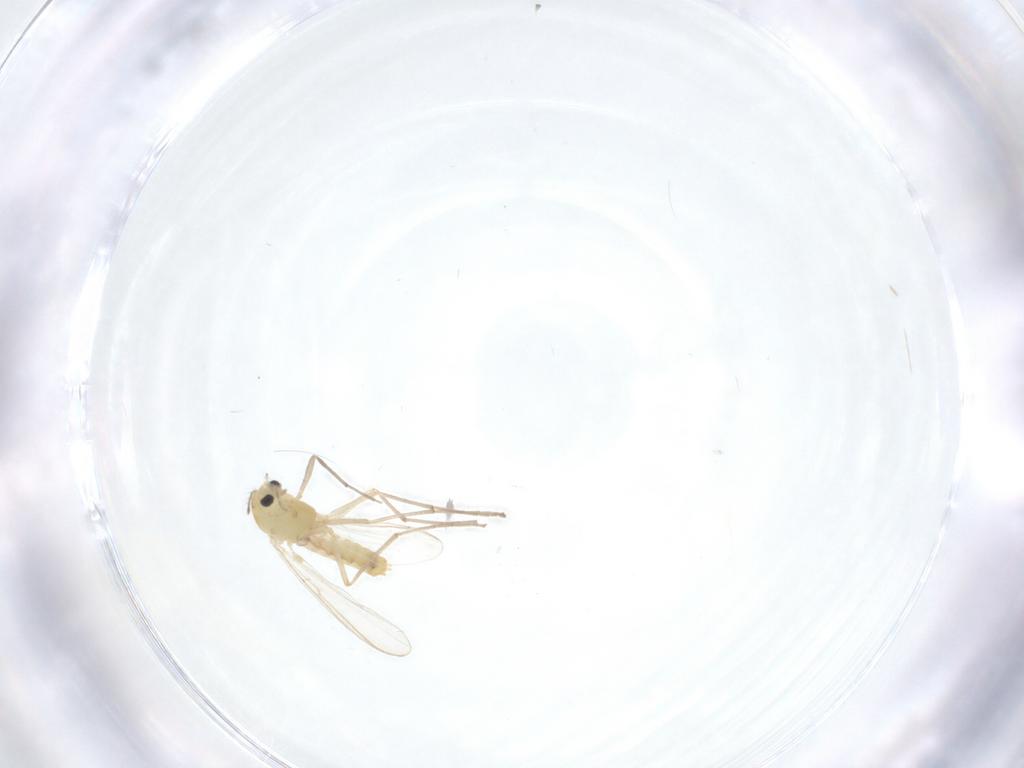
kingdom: Animalia
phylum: Arthropoda
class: Insecta
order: Diptera
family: Chironomidae
